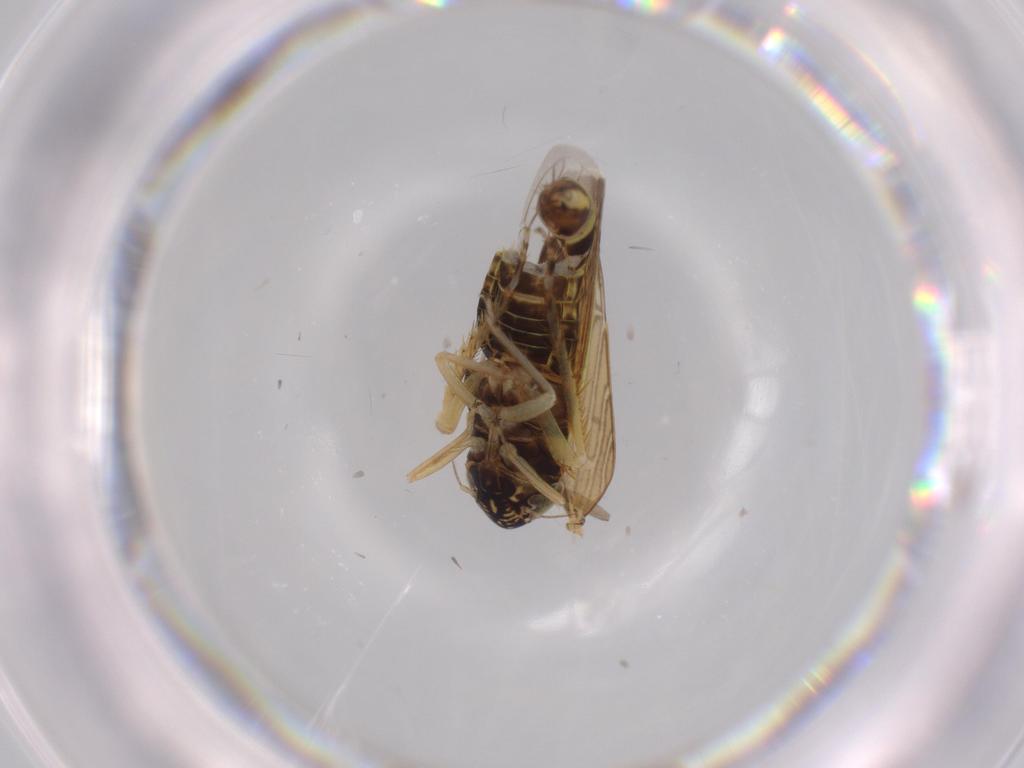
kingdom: Animalia
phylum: Arthropoda
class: Insecta
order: Hemiptera
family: Cicadellidae
